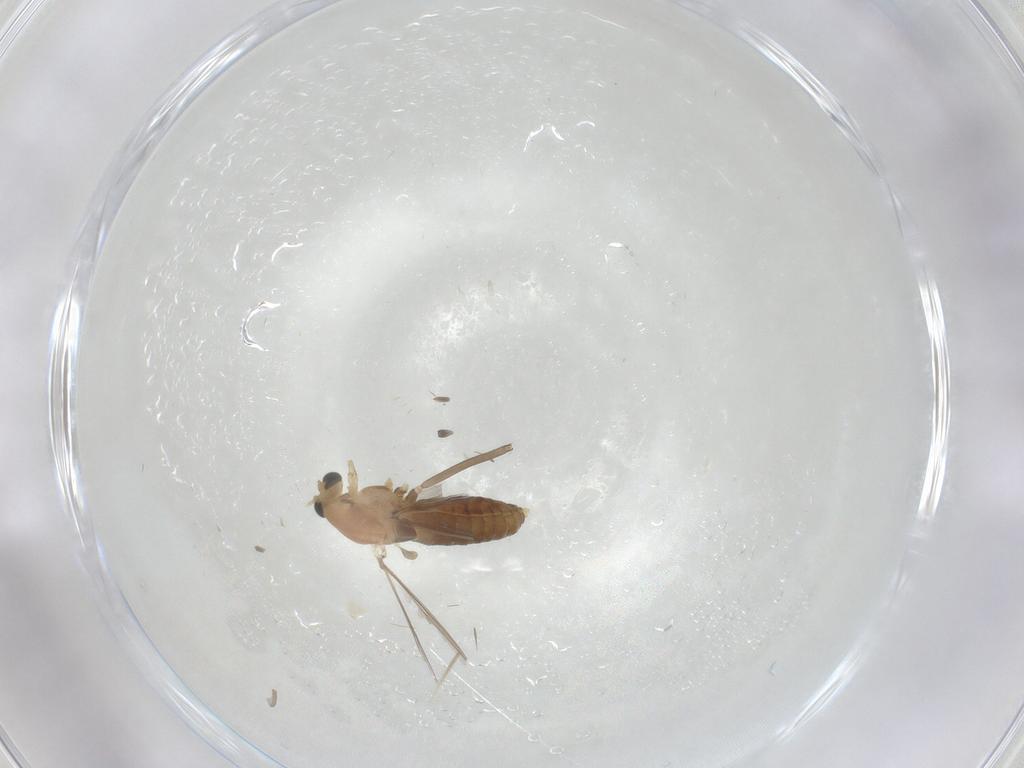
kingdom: Animalia
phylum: Arthropoda
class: Insecta
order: Diptera
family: Chironomidae
